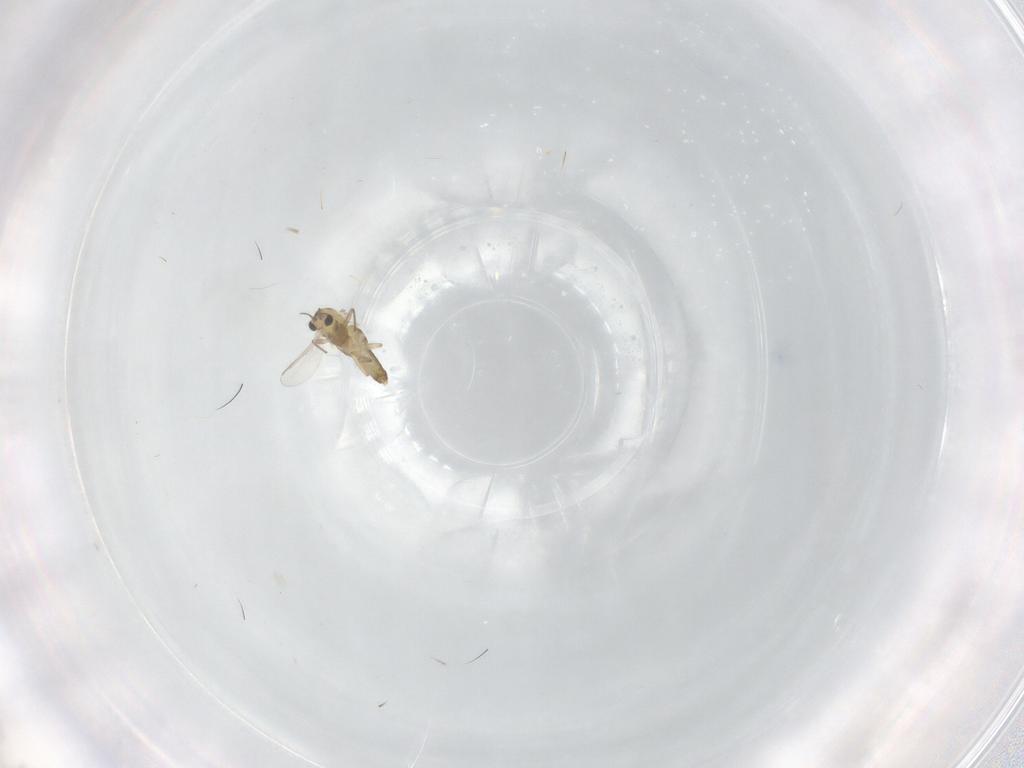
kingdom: Animalia
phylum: Arthropoda
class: Insecta
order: Diptera
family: Chironomidae
